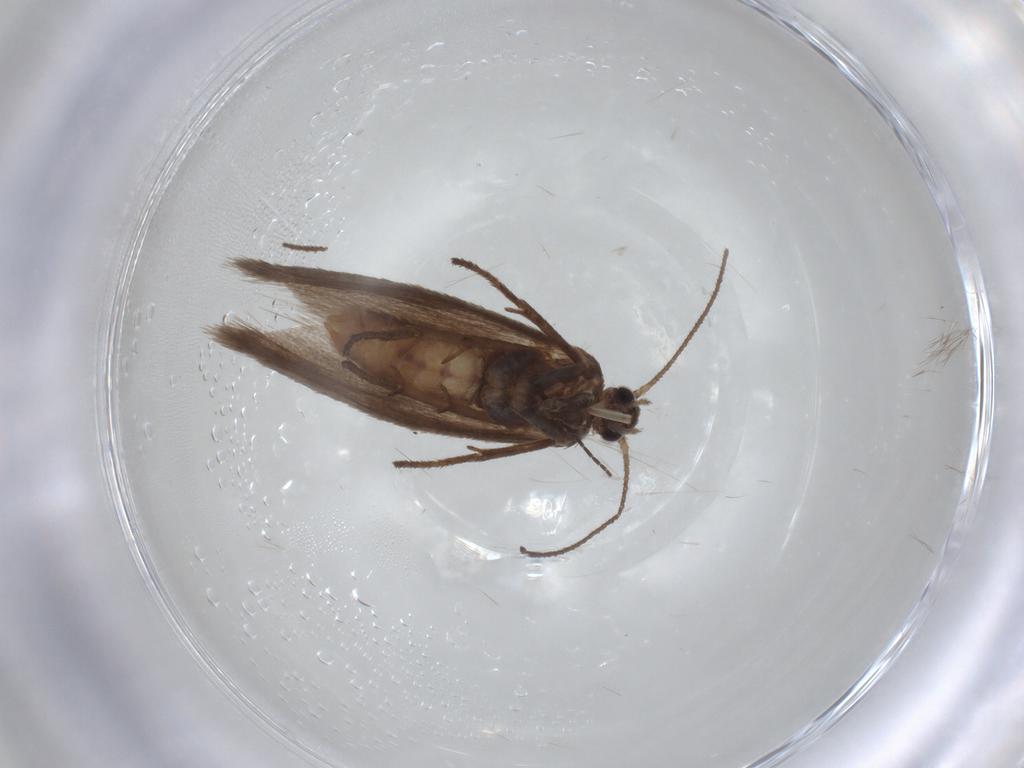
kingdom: Animalia
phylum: Arthropoda
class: Insecta
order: Lepidoptera
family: Limacodidae
